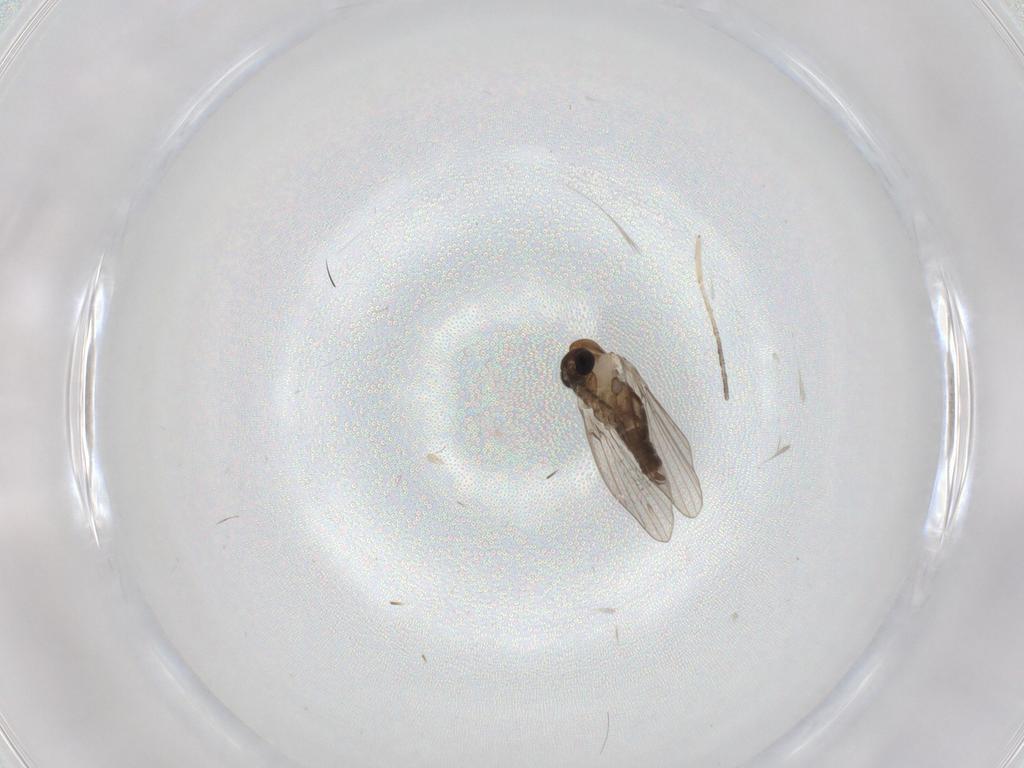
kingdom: Animalia
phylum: Arthropoda
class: Insecta
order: Diptera
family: Psychodidae
